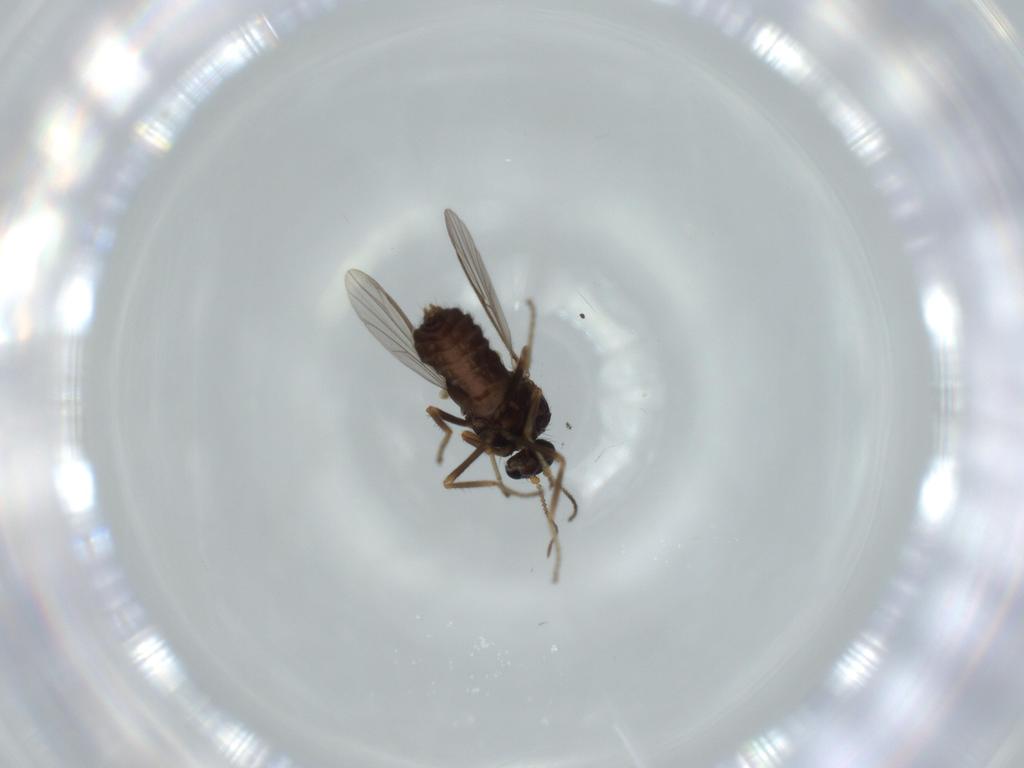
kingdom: Animalia
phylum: Arthropoda
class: Insecta
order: Diptera
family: Ceratopogonidae
